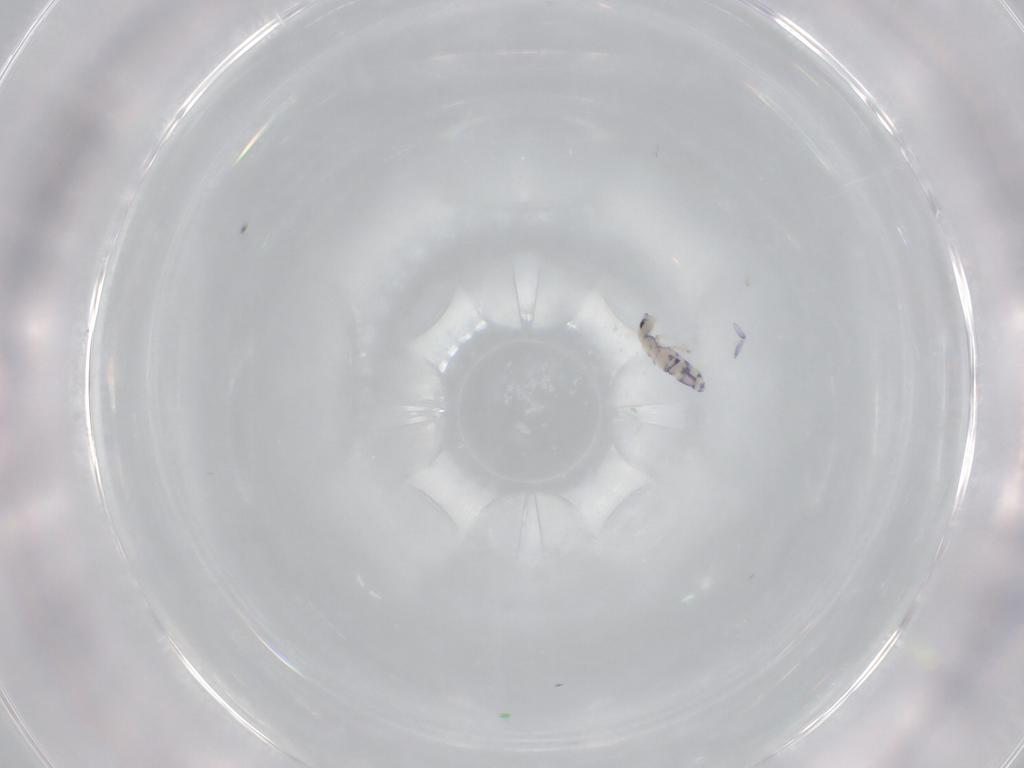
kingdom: Animalia
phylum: Arthropoda
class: Collembola
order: Entomobryomorpha
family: Entomobryidae
